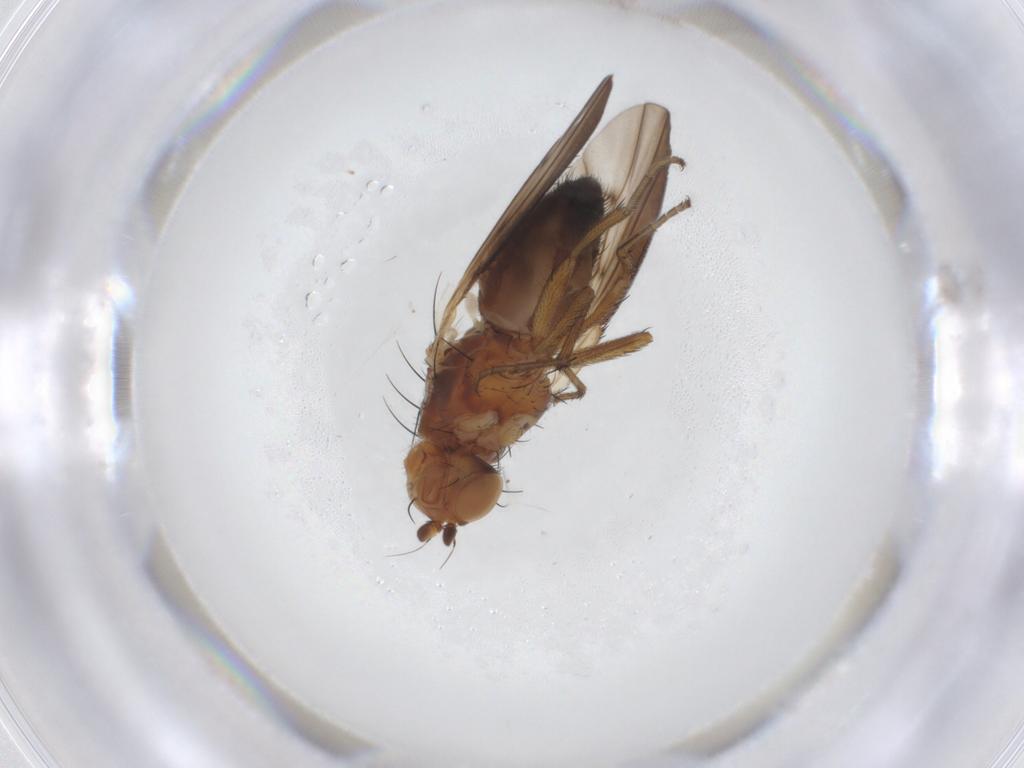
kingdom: Animalia
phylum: Arthropoda
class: Insecta
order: Diptera
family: Heleomyzidae
